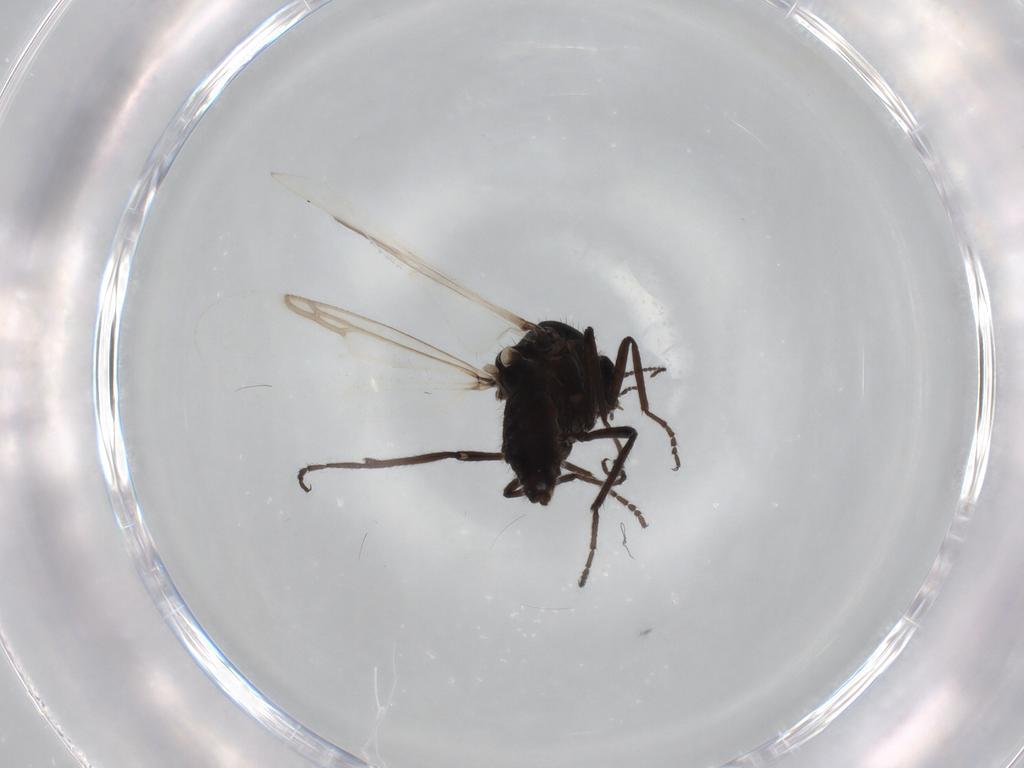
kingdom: Animalia
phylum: Arthropoda
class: Insecta
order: Diptera
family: Ceratopogonidae
